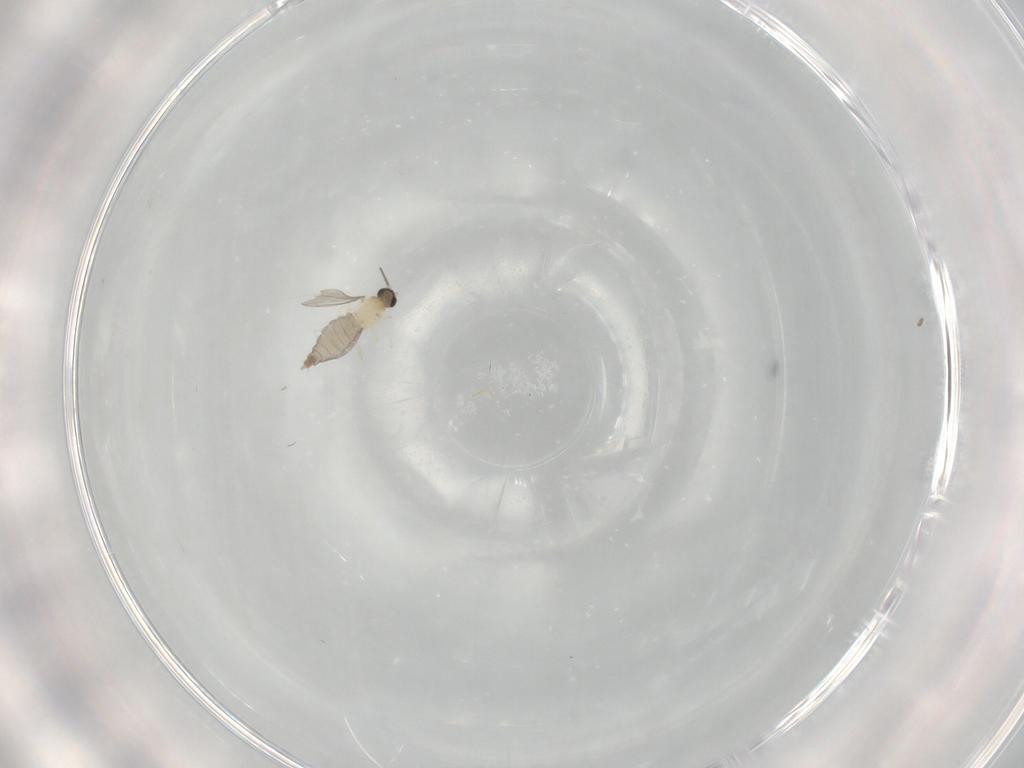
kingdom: Animalia
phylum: Arthropoda
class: Insecta
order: Diptera
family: Cecidomyiidae
